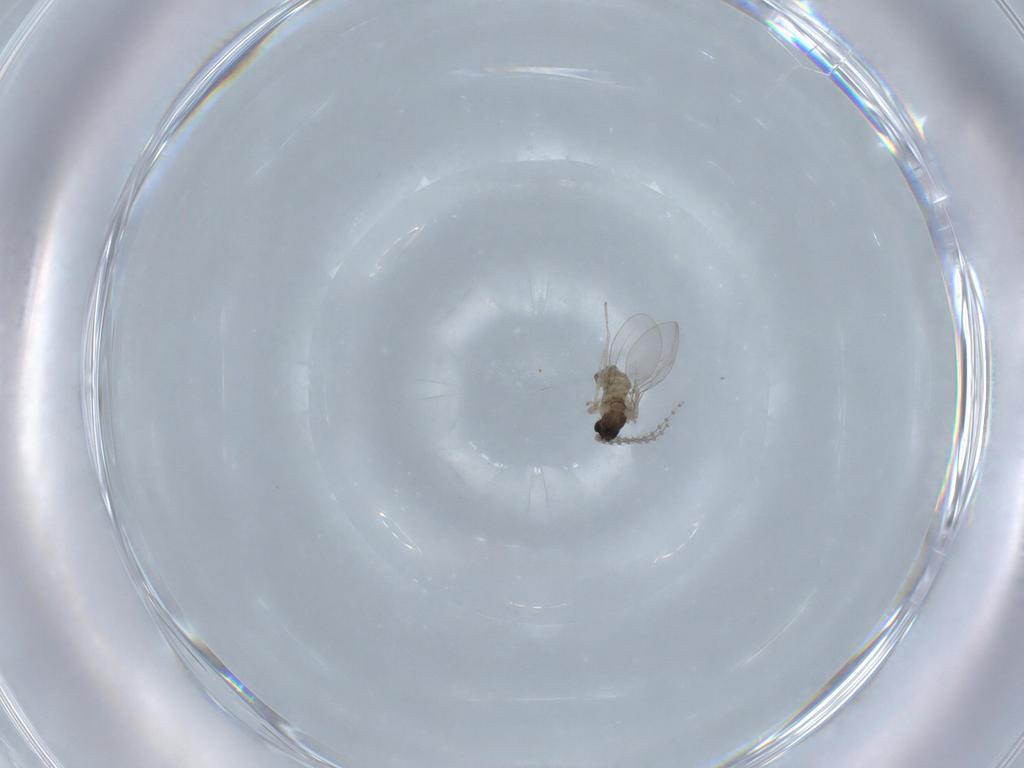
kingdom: Animalia
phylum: Arthropoda
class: Insecta
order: Diptera
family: Cecidomyiidae
